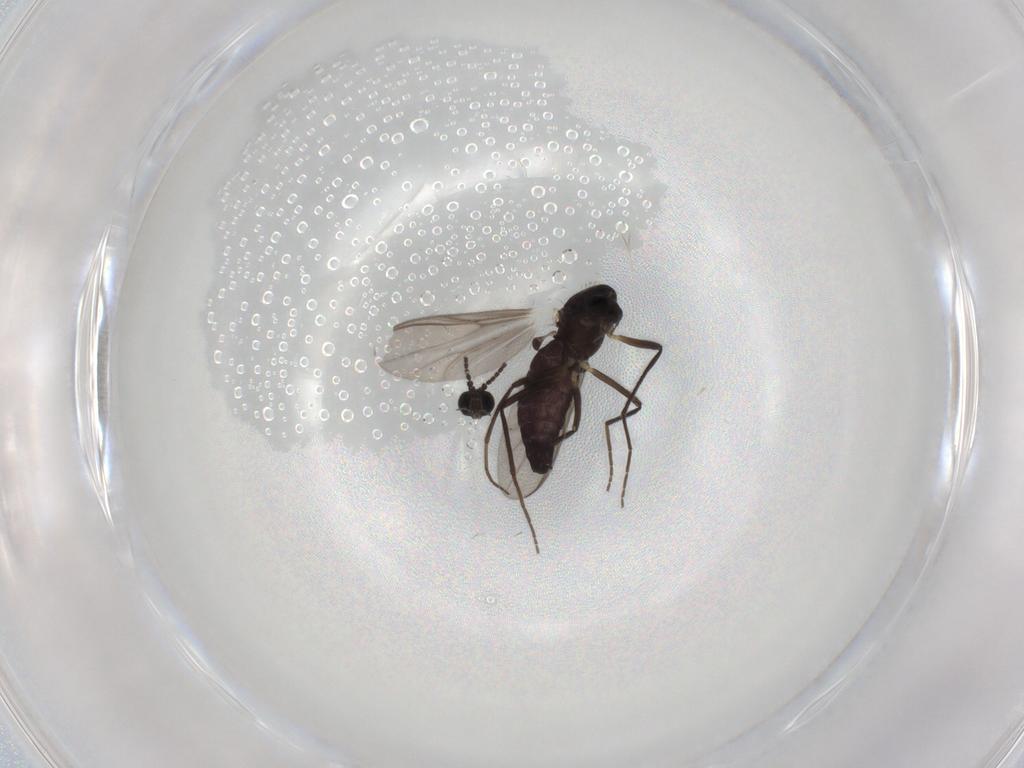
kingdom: Animalia
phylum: Arthropoda
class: Insecta
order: Diptera
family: Chironomidae
